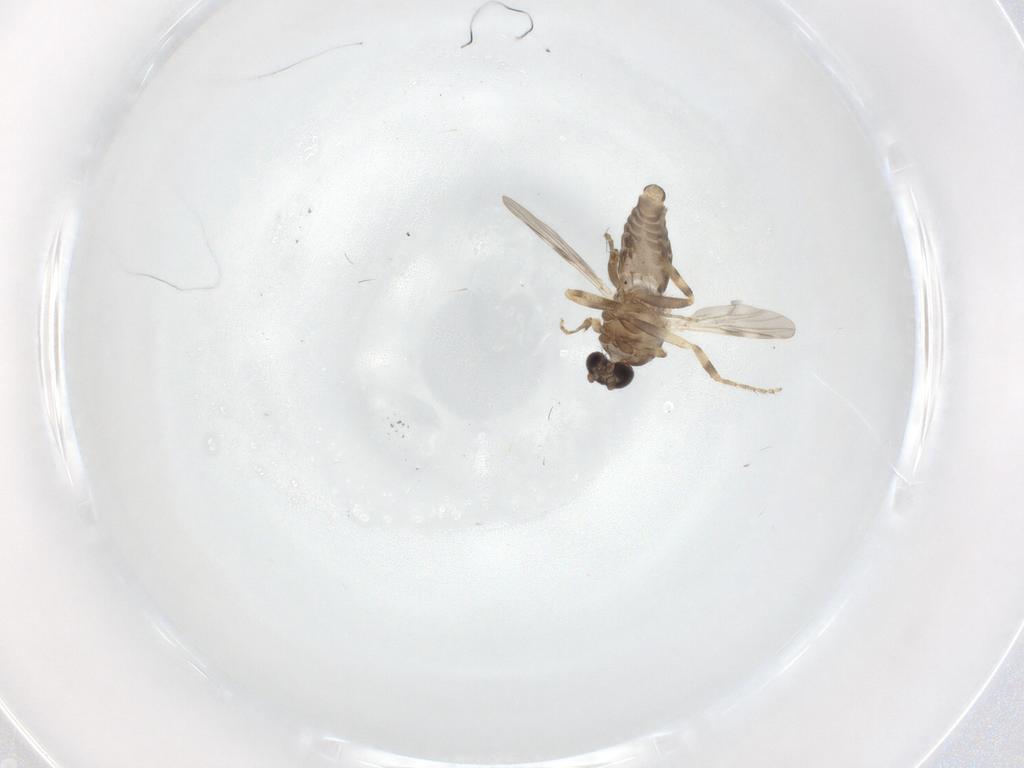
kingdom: Animalia
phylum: Arthropoda
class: Insecta
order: Diptera
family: Ceratopogonidae
